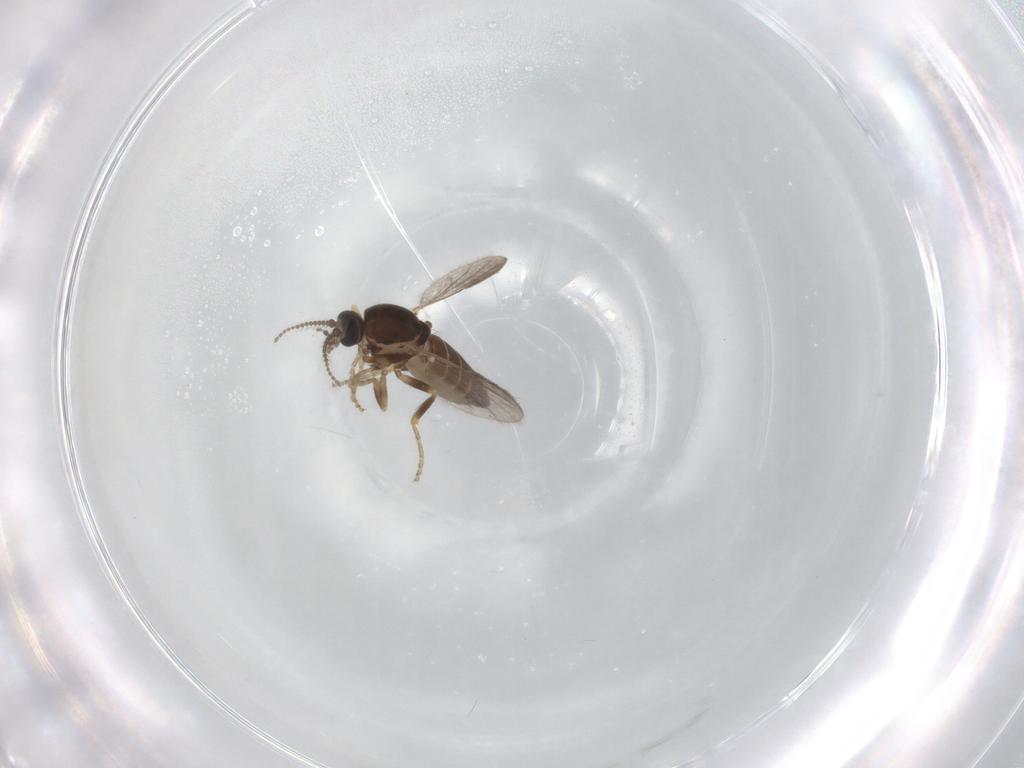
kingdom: Animalia
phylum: Arthropoda
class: Insecta
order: Diptera
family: Ceratopogonidae
